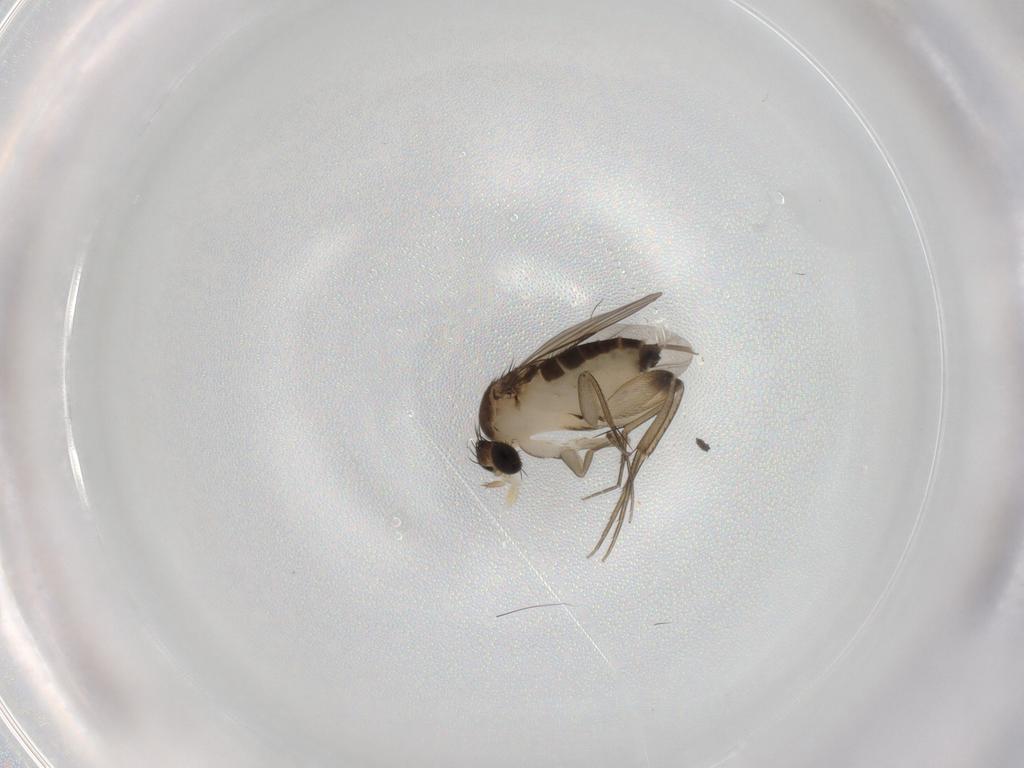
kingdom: Animalia
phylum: Arthropoda
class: Insecta
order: Diptera
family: Phoridae
